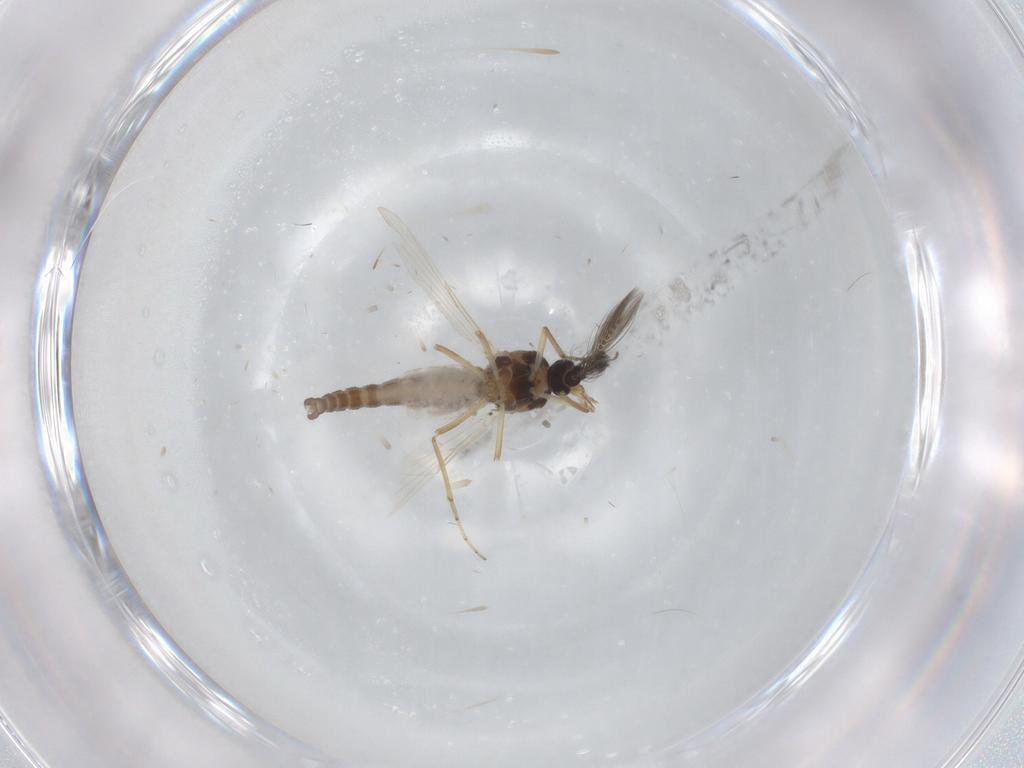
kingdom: Animalia
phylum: Arthropoda
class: Insecta
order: Diptera
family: Ceratopogonidae
